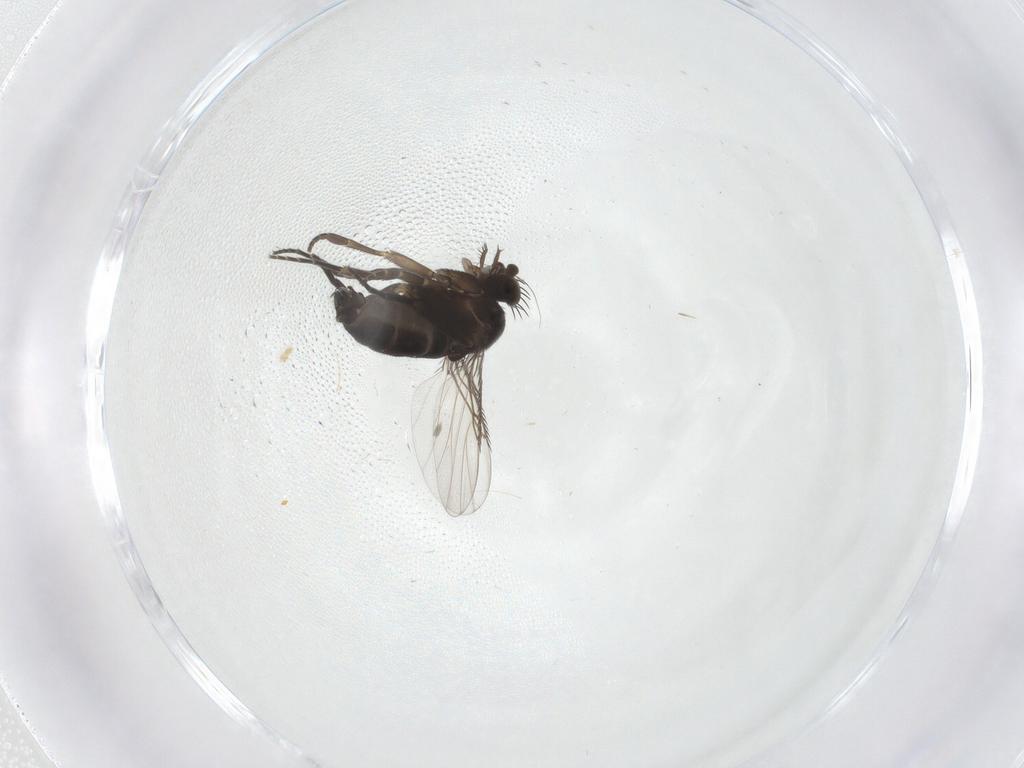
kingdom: Animalia
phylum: Arthropoda
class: Insecta
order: Diptera
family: Phoridae
